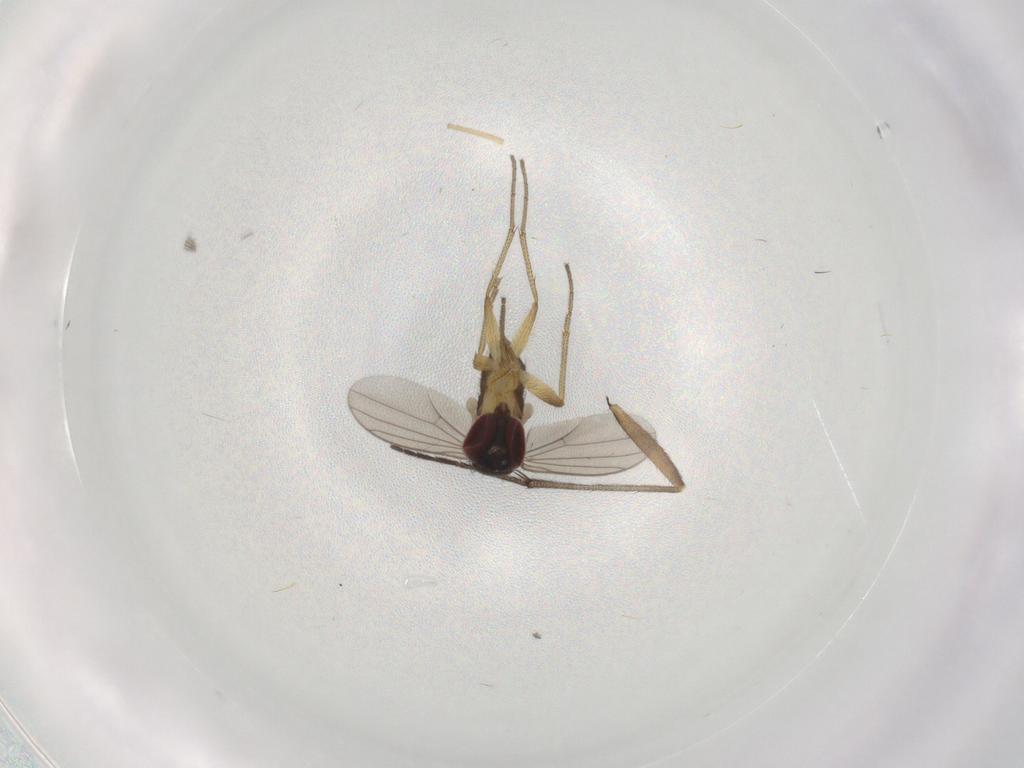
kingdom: Animalia
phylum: Arthropoda
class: Insecta
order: Diptera
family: Dolichopodidae
